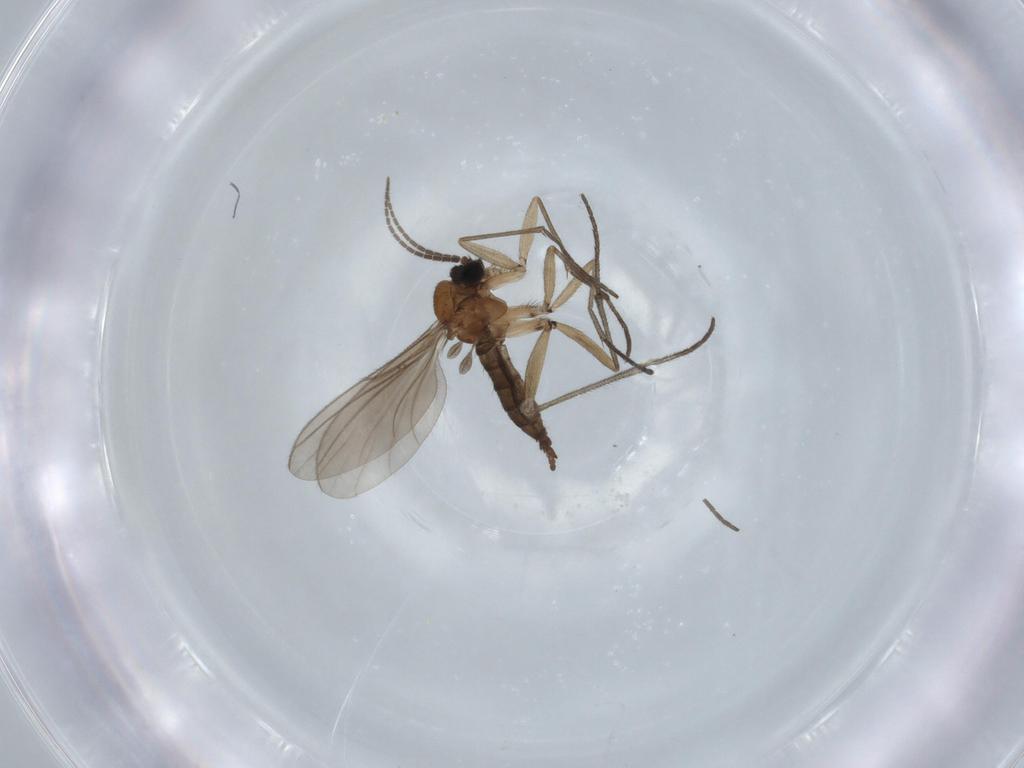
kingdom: Animalia
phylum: Arthropoda
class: Insecta
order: Diptera
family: Sciaridae
